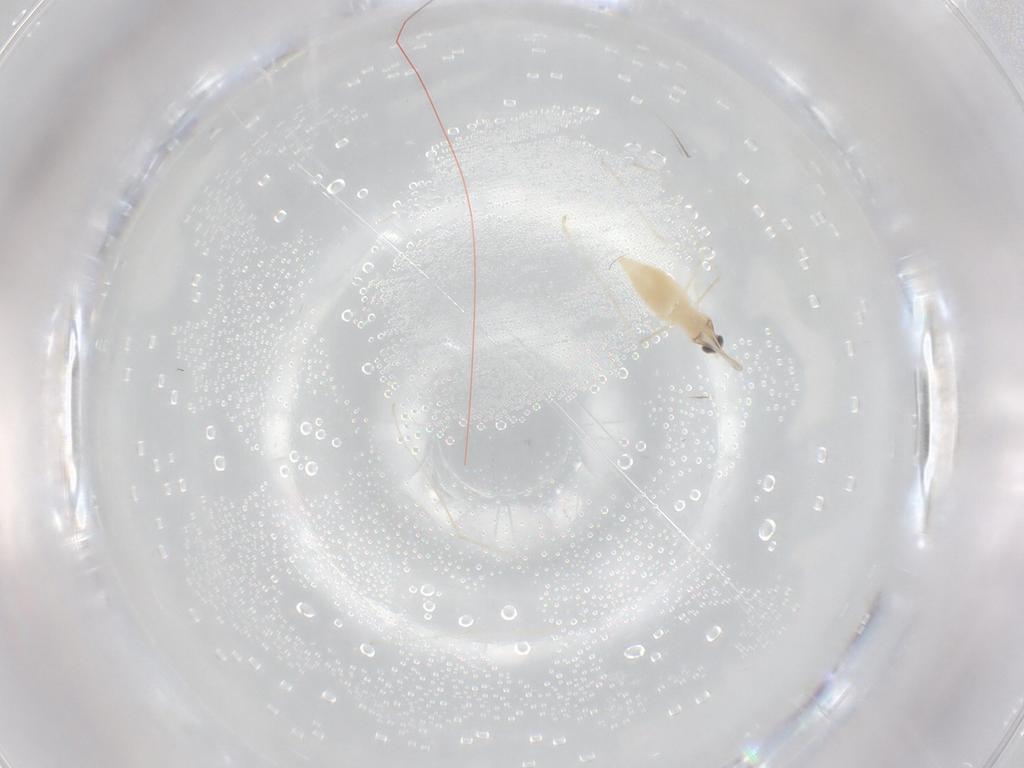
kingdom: Animalia
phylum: Arthropoda
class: Insecta
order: Diptera
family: Cecidomyiidae
